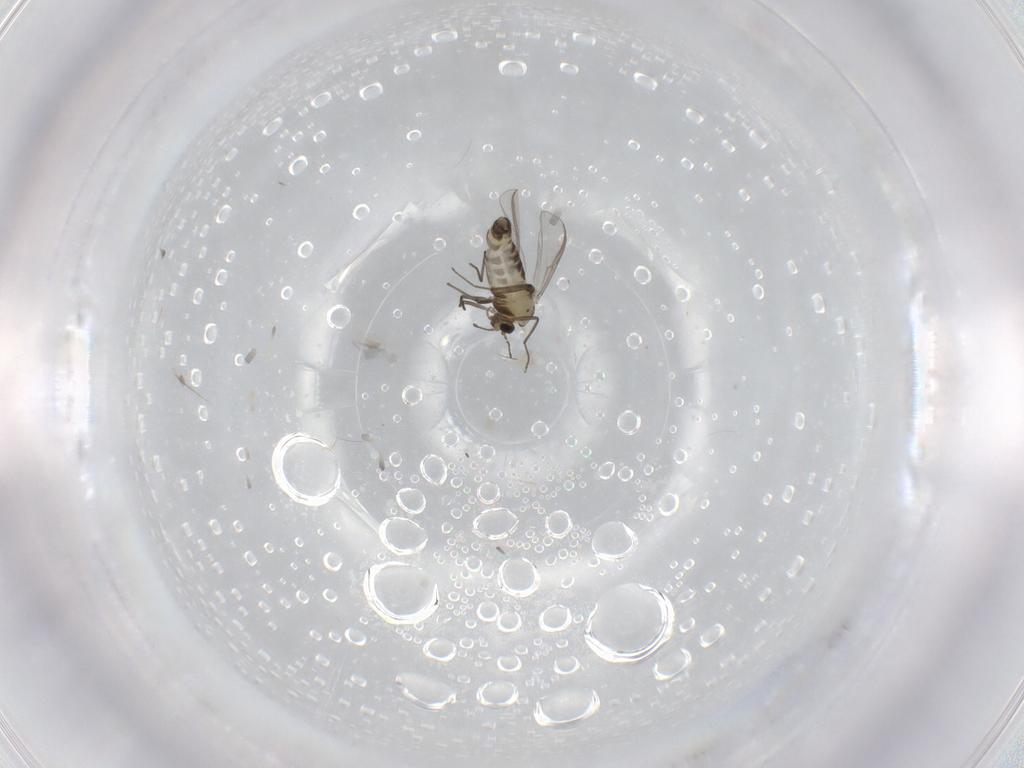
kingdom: Animalia
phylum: Arthropoda
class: Insecta
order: Diptera
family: Chironomidae
